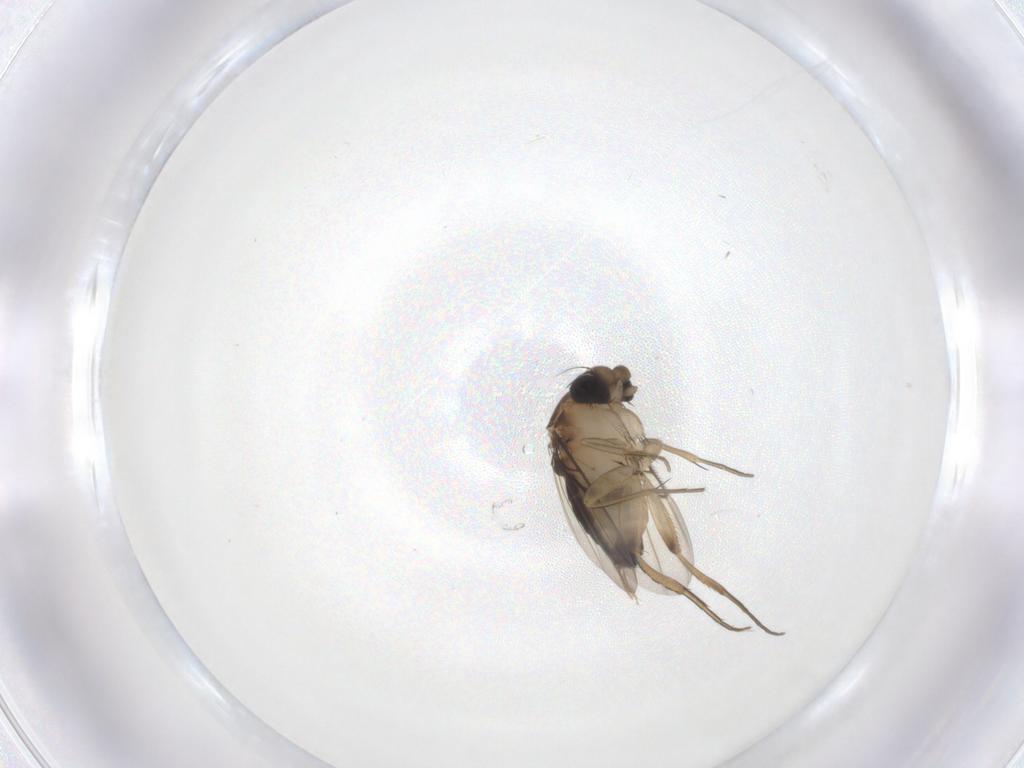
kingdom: Animalia
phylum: Arthropoda
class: Insecta
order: Diptera
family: Phoridae
